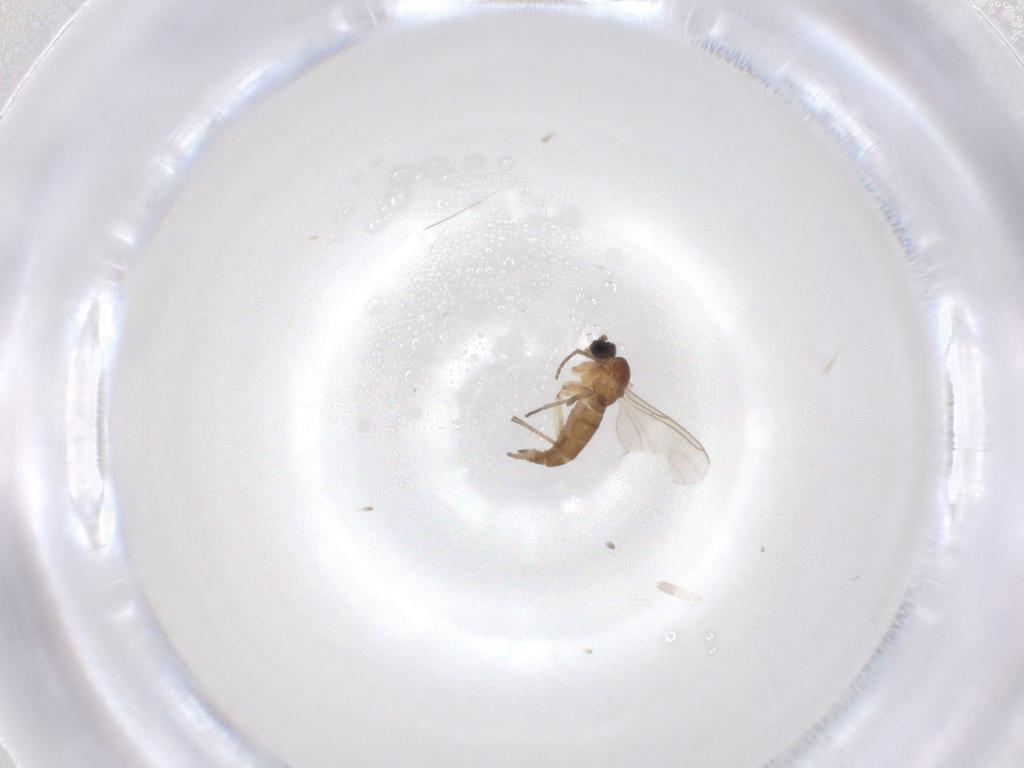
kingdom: Animalia
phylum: Arthropoda
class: Insecta
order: Diptera
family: Sciaridae
